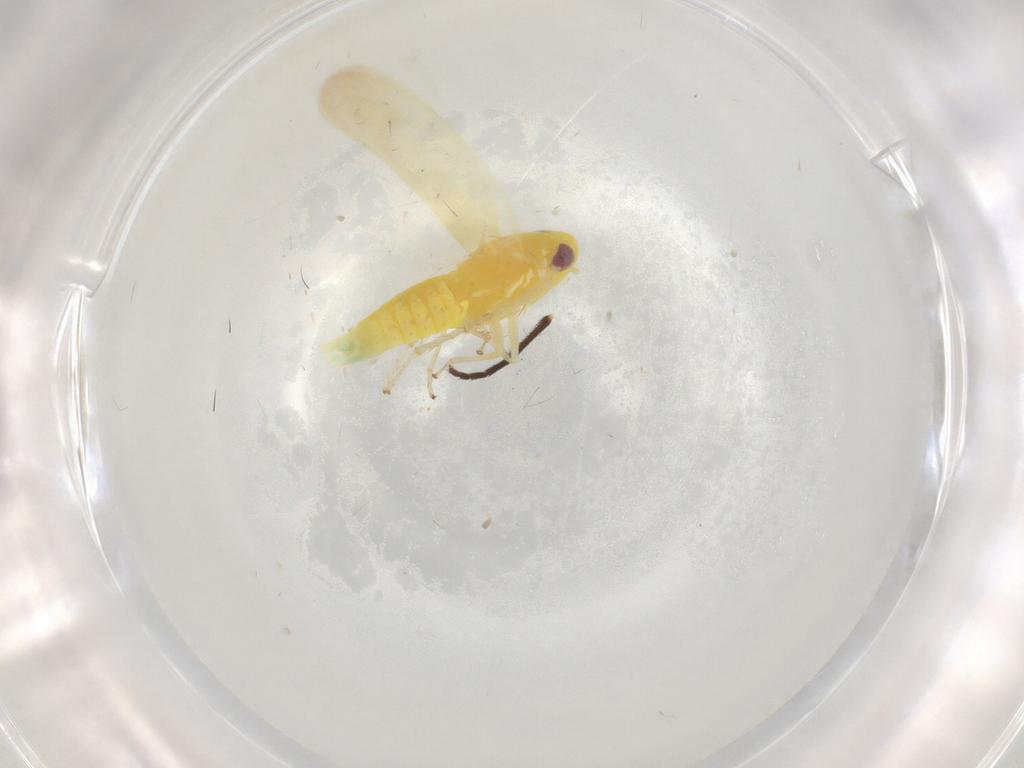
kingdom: Animalia
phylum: Arthropoda
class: Insecta
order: Hemiptera
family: Cicadellidae
